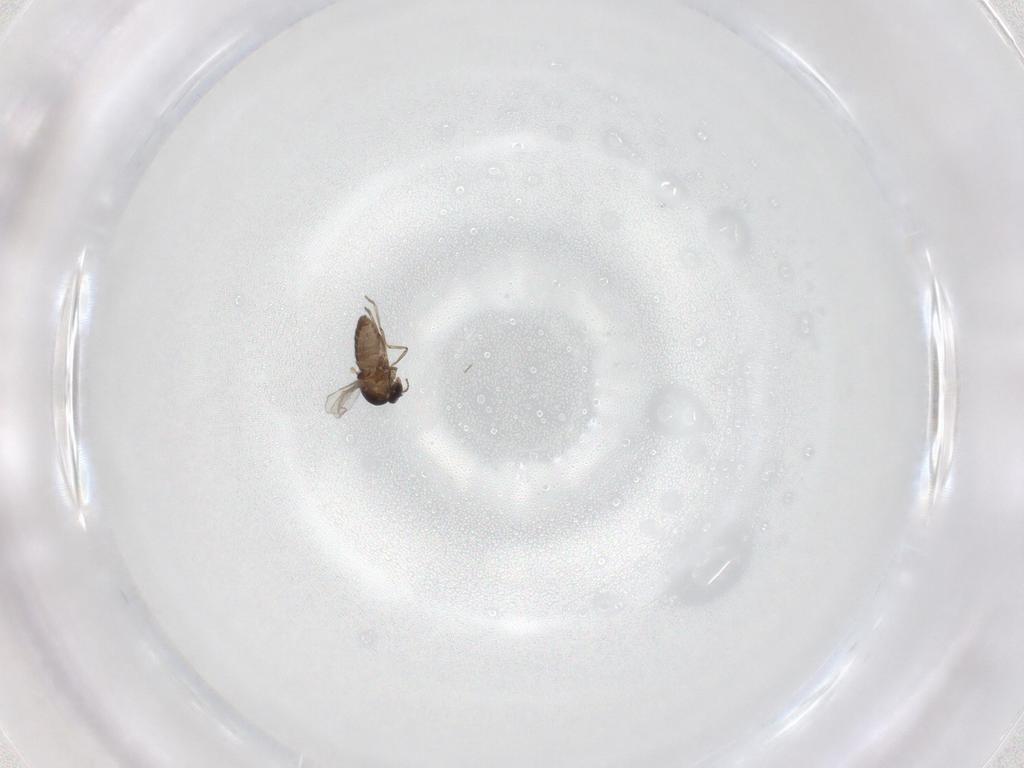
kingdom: Animalia
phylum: Arthropoda
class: Insecta
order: Diptera
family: Ceratopogonidae
